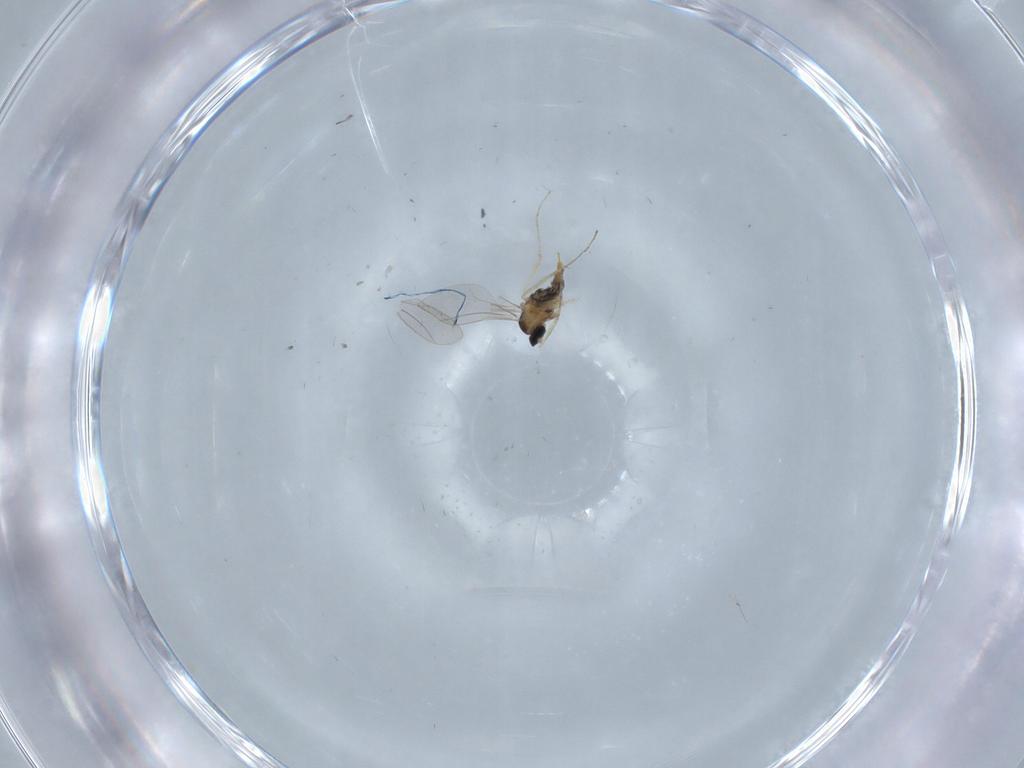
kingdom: Animalia
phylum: Arthropoda
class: Insecta
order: Diptera
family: Cecidomyiidae
